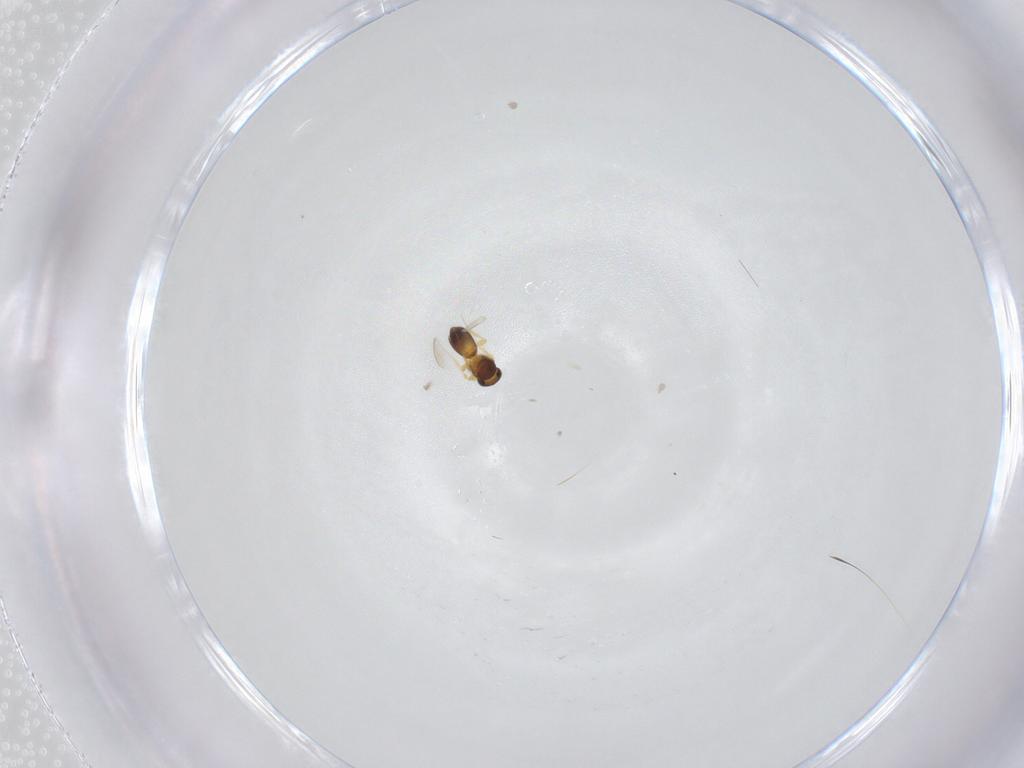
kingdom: Animalia
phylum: Arthropoda
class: Insecta
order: Hymenoptera
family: Platygastridae
